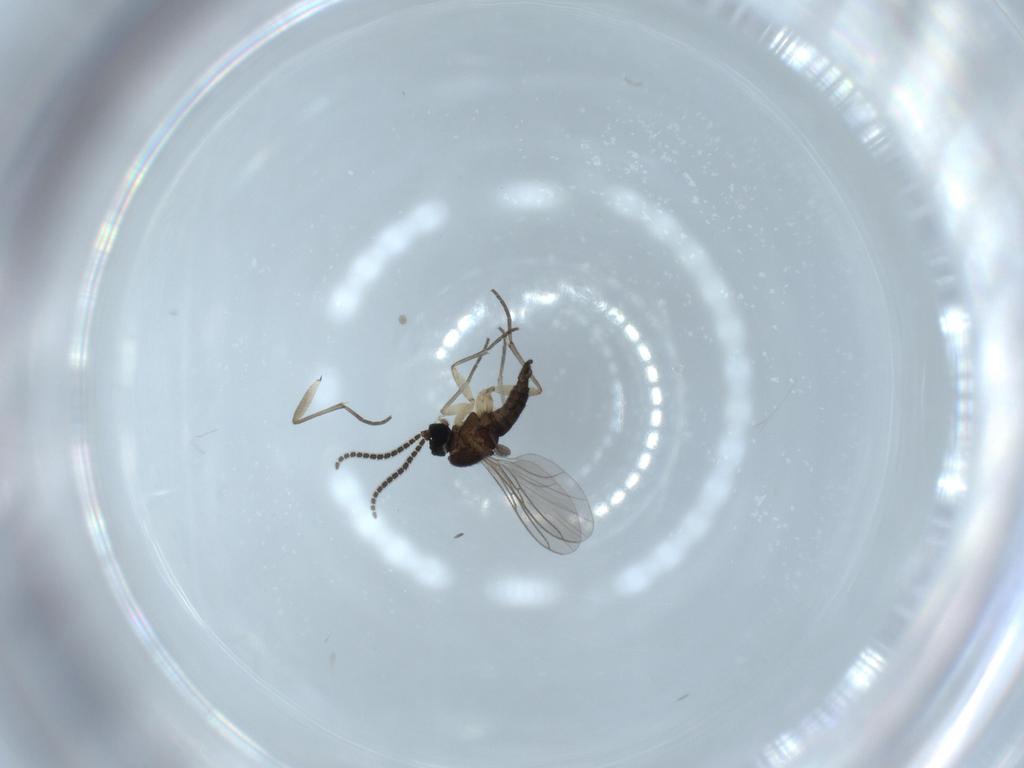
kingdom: Animalia
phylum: Arthropoda
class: Insecta
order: Diptera
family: Sciaridae
